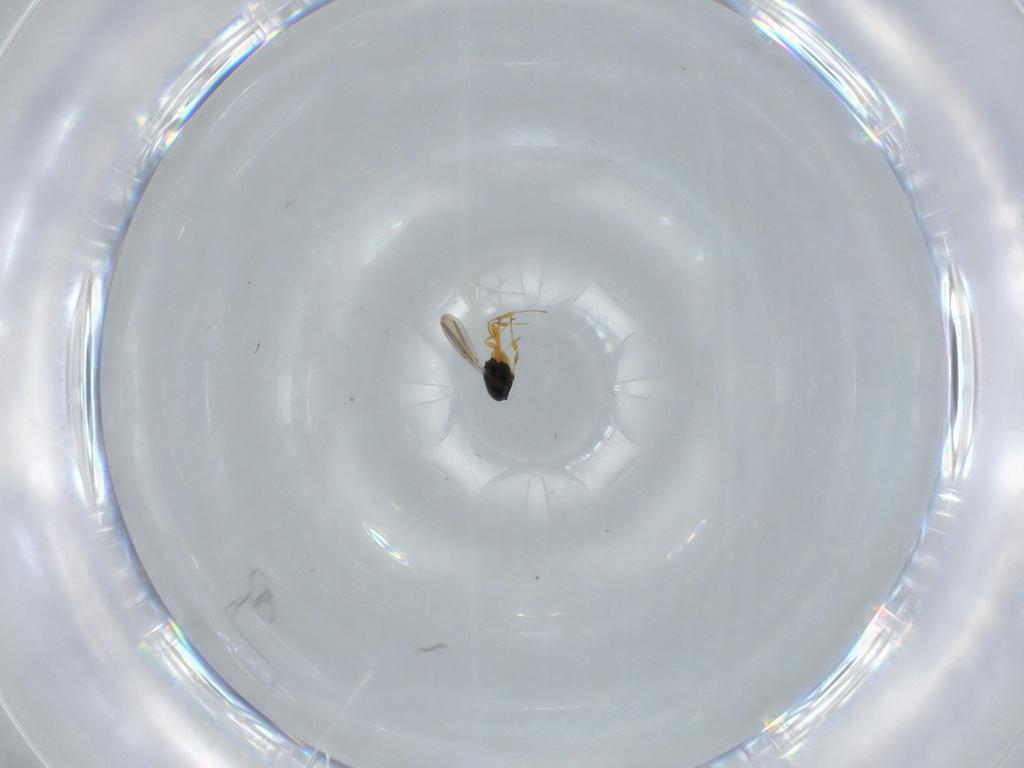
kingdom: Animalia
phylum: Arthropoda
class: Insecta
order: Hymenoptera
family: Scelionidae
